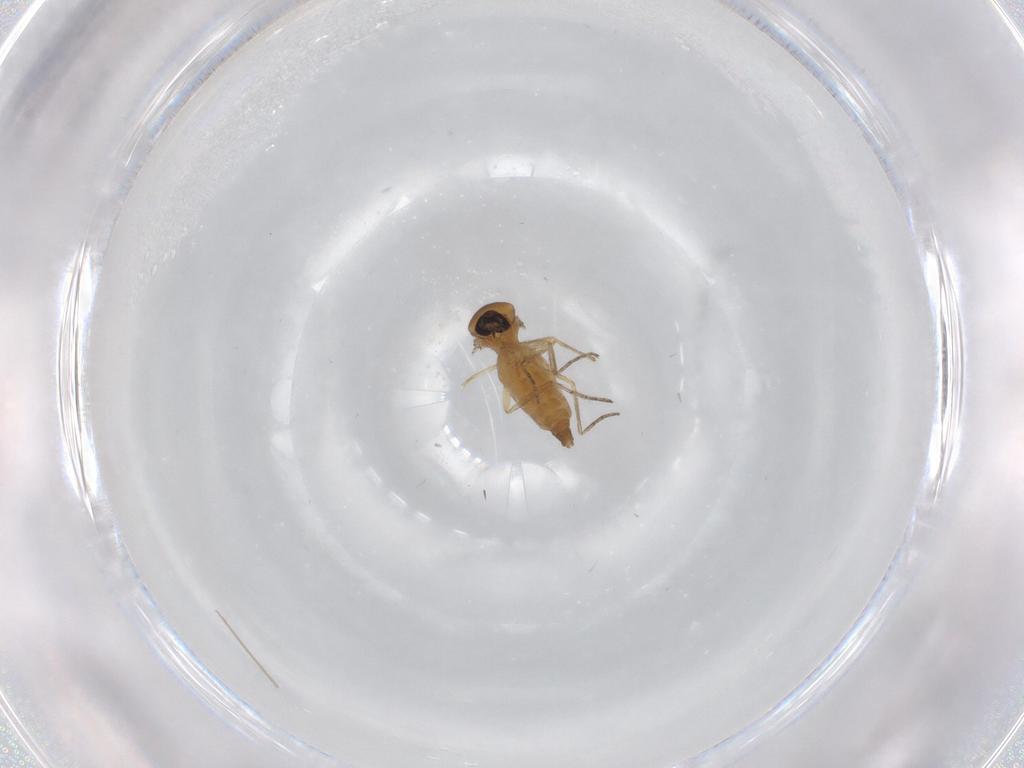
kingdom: Animalia
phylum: Arthropoda
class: Insecta
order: Diptera
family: Ceratopogonidae
